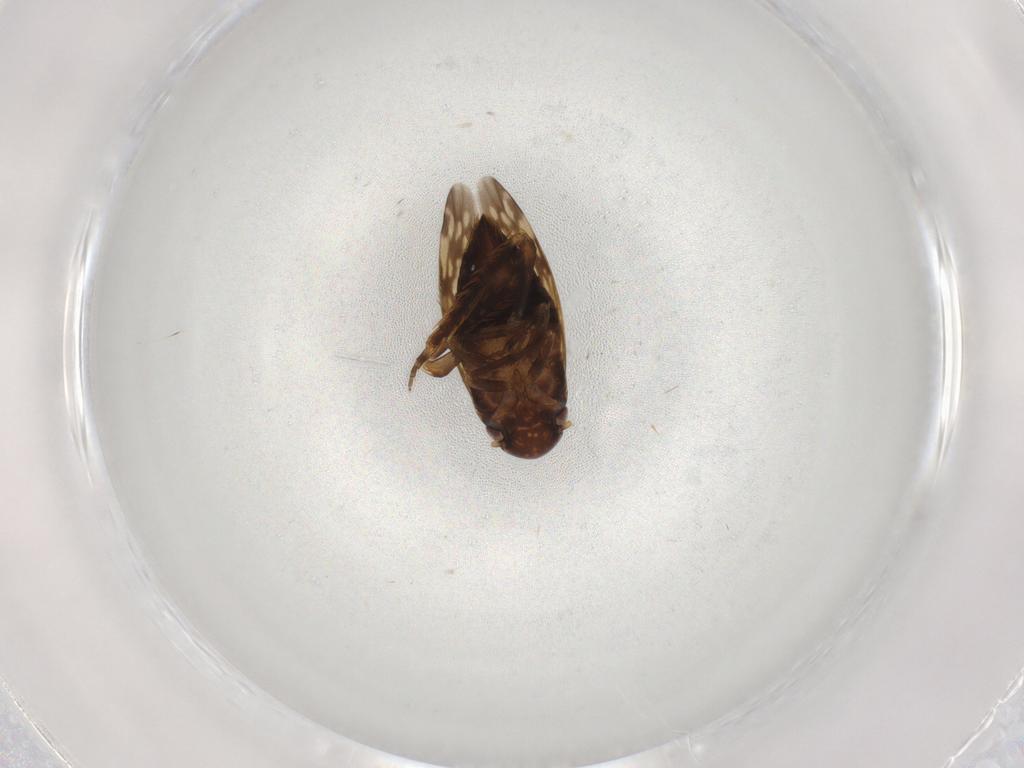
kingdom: Animalia
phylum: Arthropoda
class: Insecta
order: Hemiptera
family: Cicadellidae
